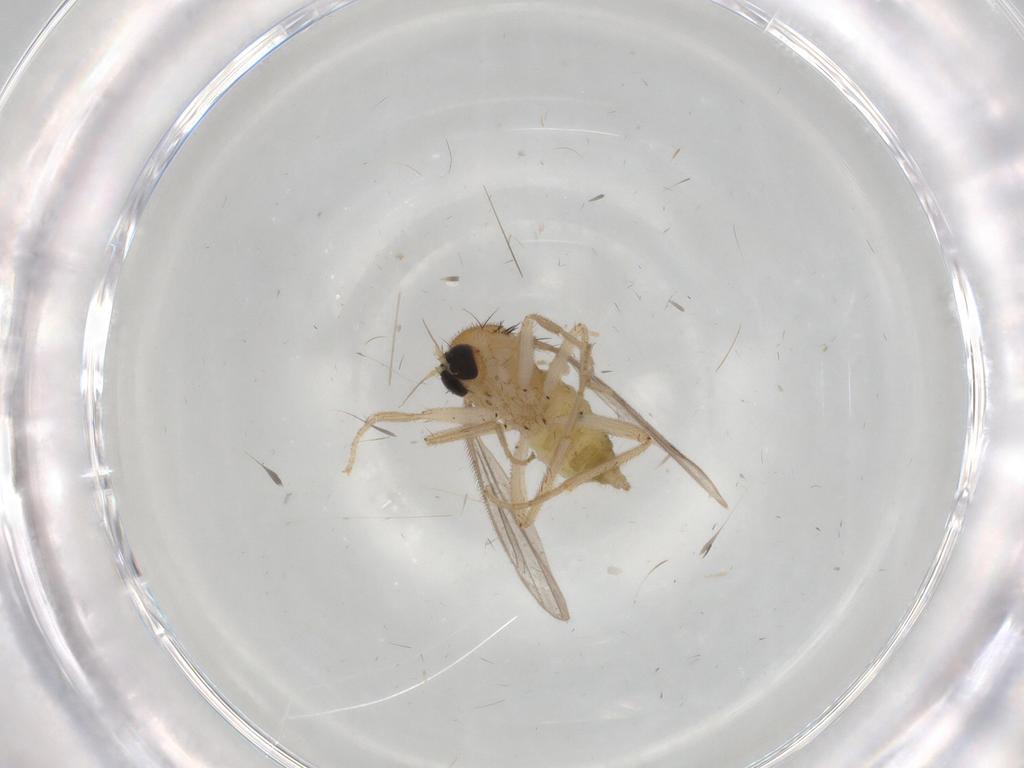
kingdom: Animalia
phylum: Arthropoda
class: Insecta
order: Diptera
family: Hybotidae
